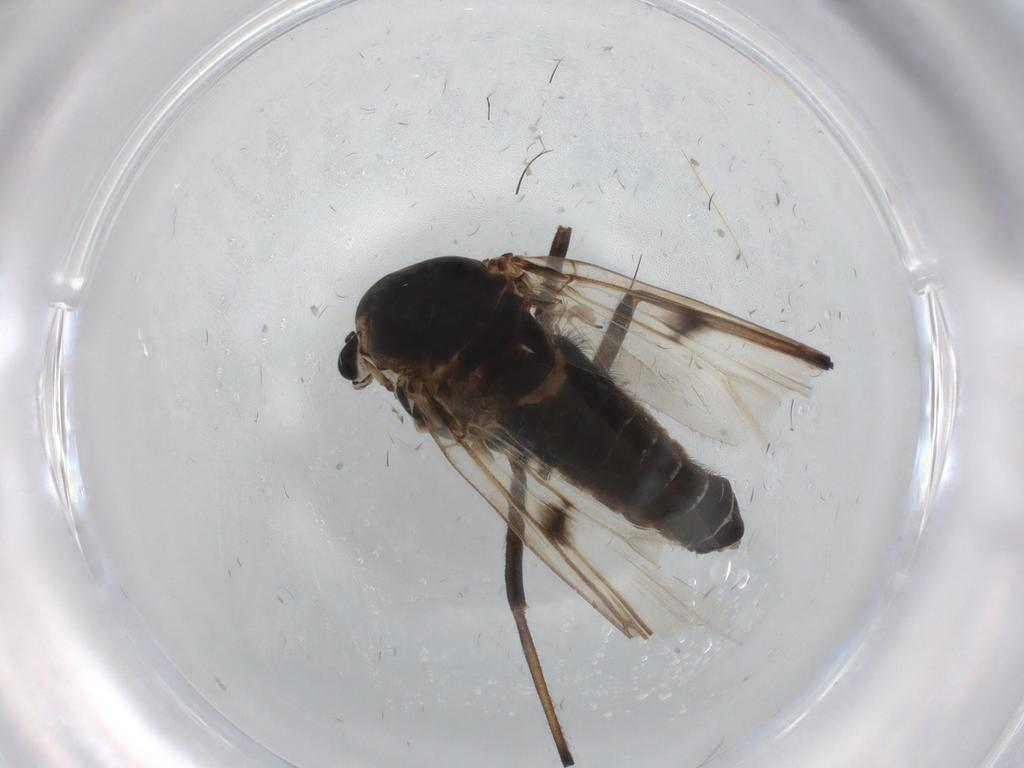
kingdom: Animalia
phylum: Arthropoda
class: Insecta
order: Diptera
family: Chironomidae
